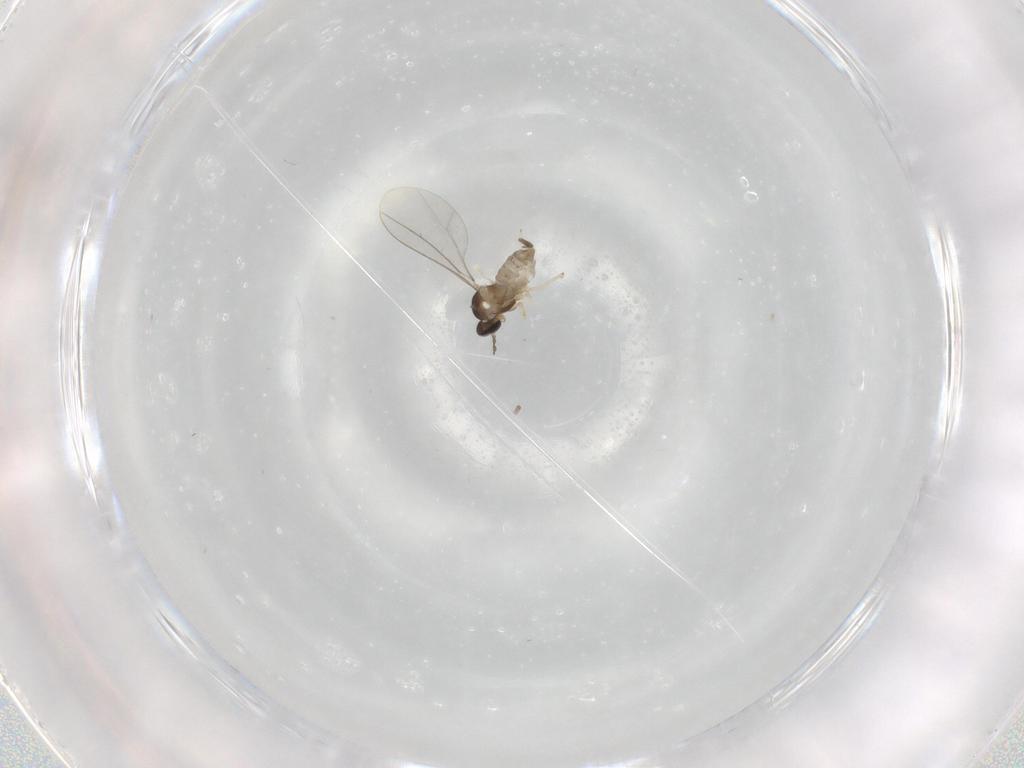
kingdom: Animalia
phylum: Arthropoda
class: Insecta
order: Diptera
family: Cecidomyiidae
